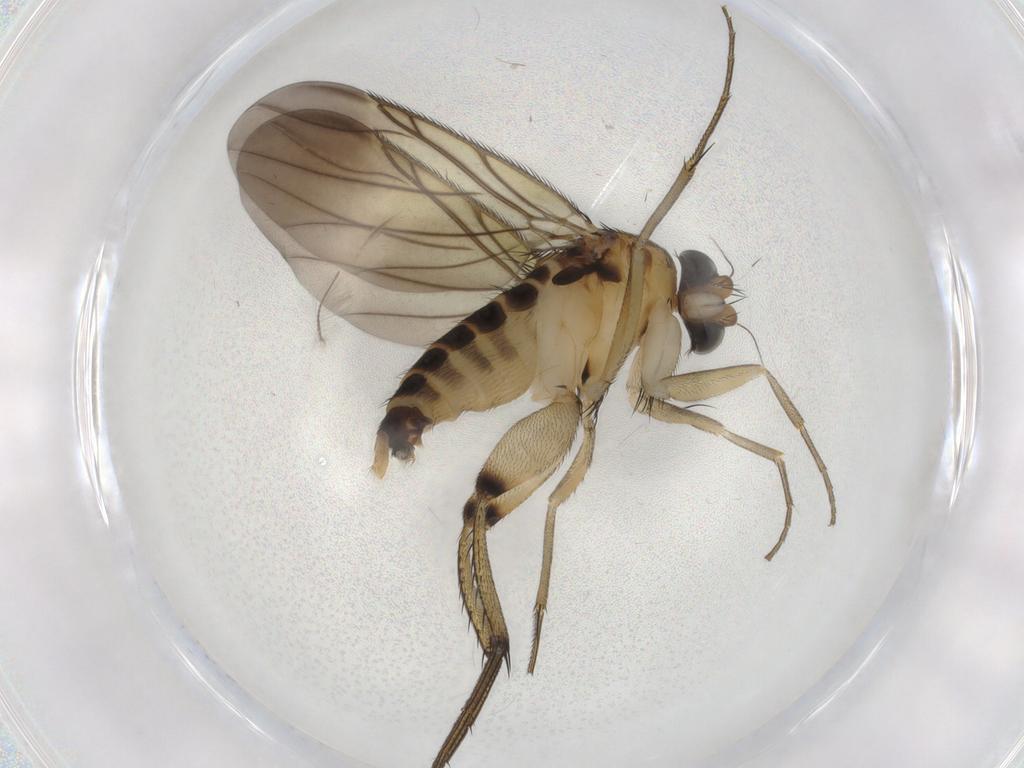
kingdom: Animalia
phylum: Arthropoda
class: Insecta
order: Diptera
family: Phoridae
